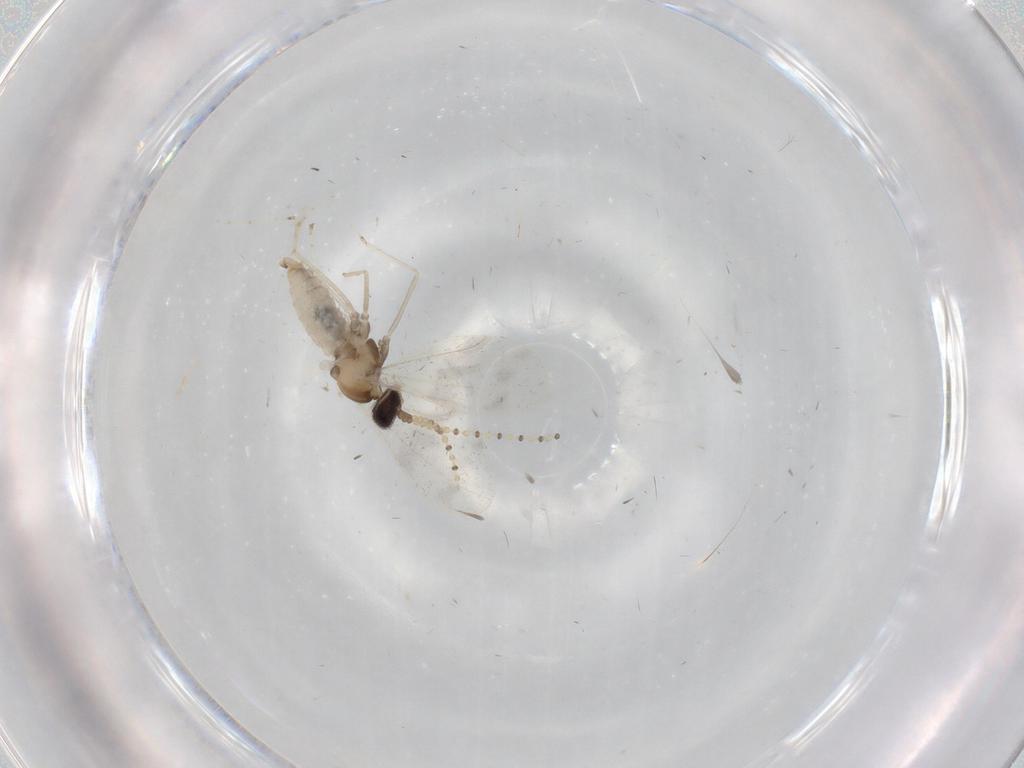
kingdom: Animalia
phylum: Arthropoda
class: Insecta
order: Diptera
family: Cecidomyiidae
